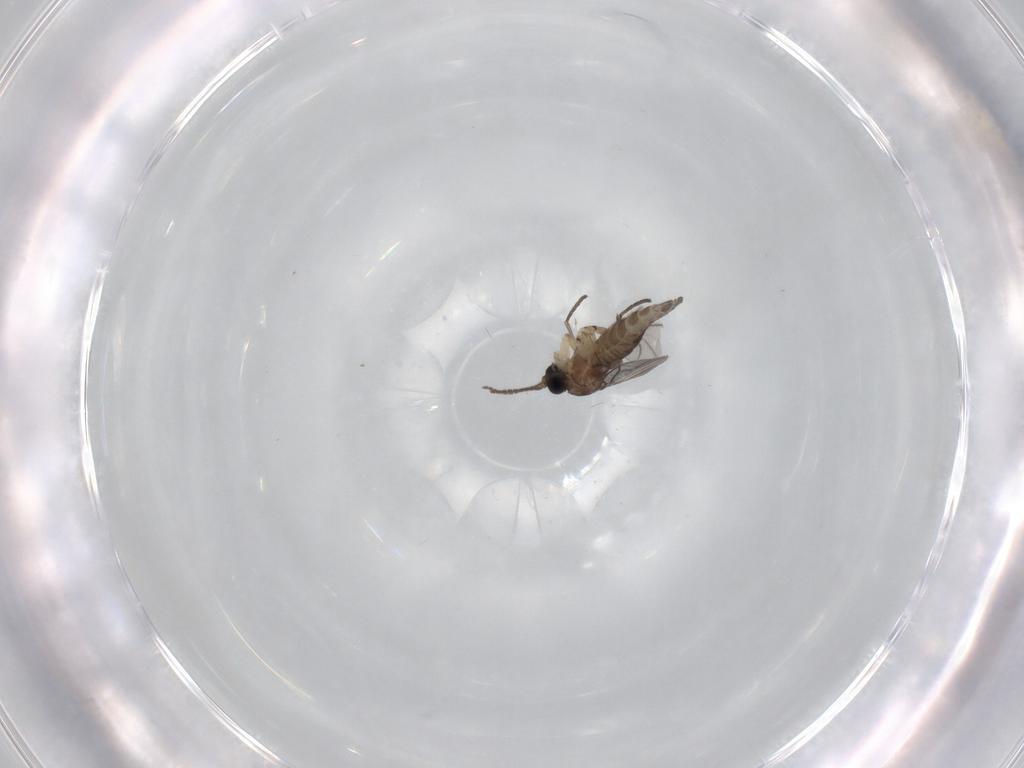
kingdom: Animalia
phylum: Arthropoda
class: Insecta
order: Diptera
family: Sciaridae
